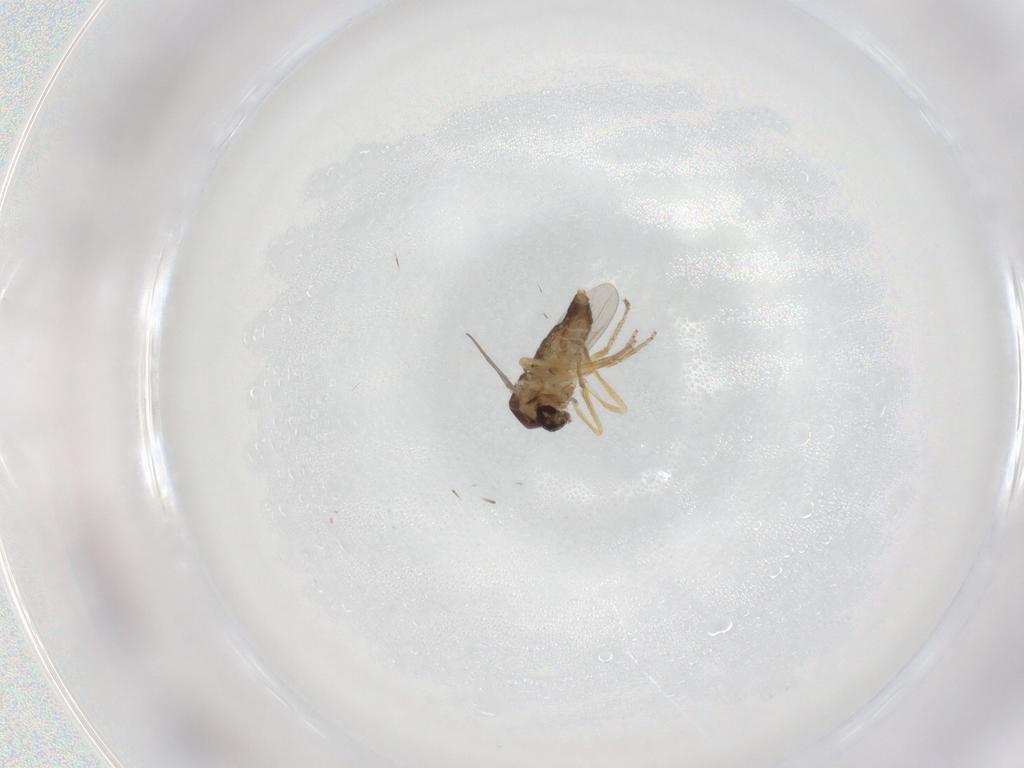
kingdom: Animalia
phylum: Arthropoda
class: Insecta
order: Diptera
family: Ceratopogonidae
